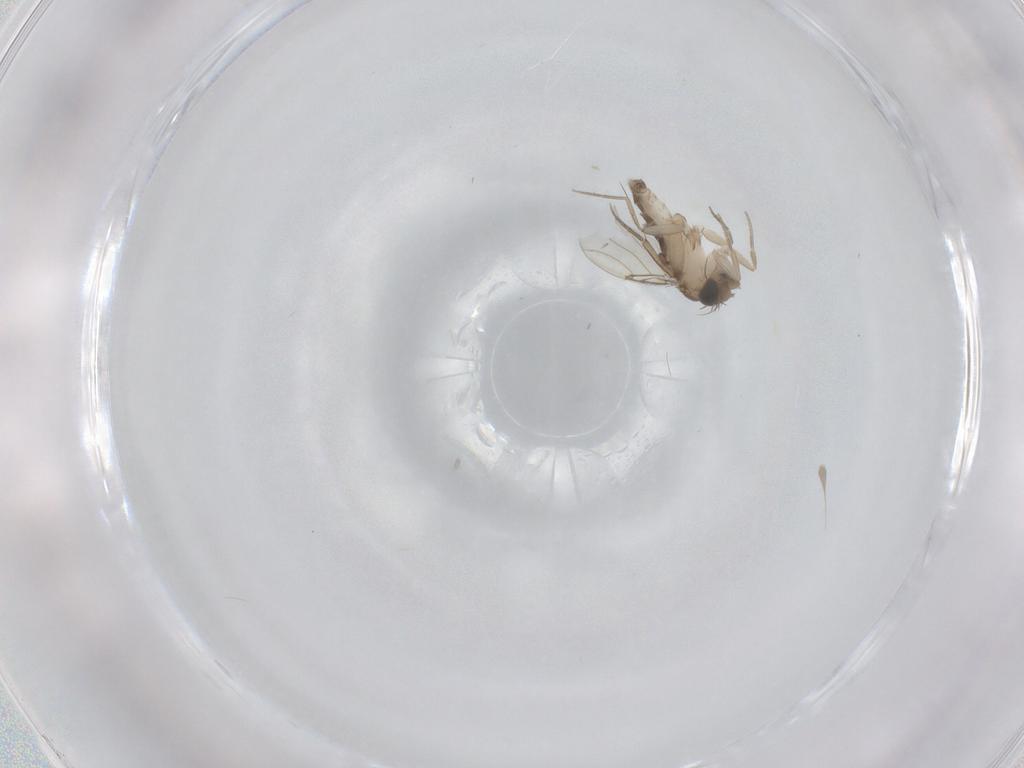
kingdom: Animalia
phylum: Arthropoda
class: Insecta
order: Diptera
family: Phoridae
